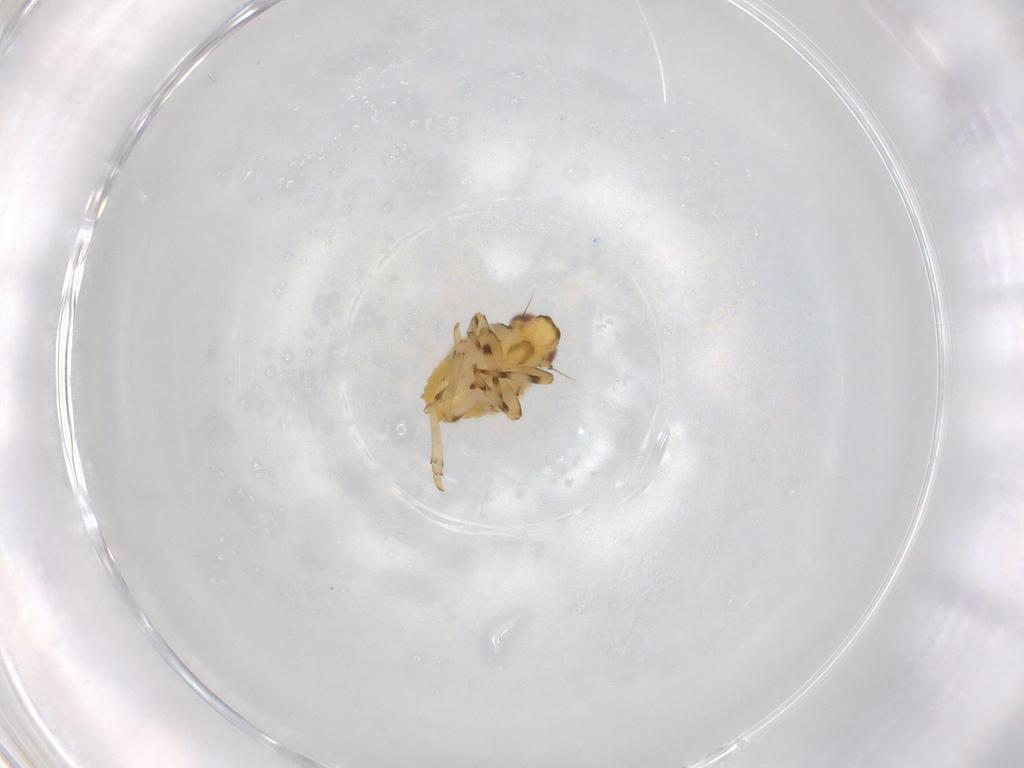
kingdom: Animalia
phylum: Arthropoda
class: Insecta
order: Hemiptera
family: Issidae
